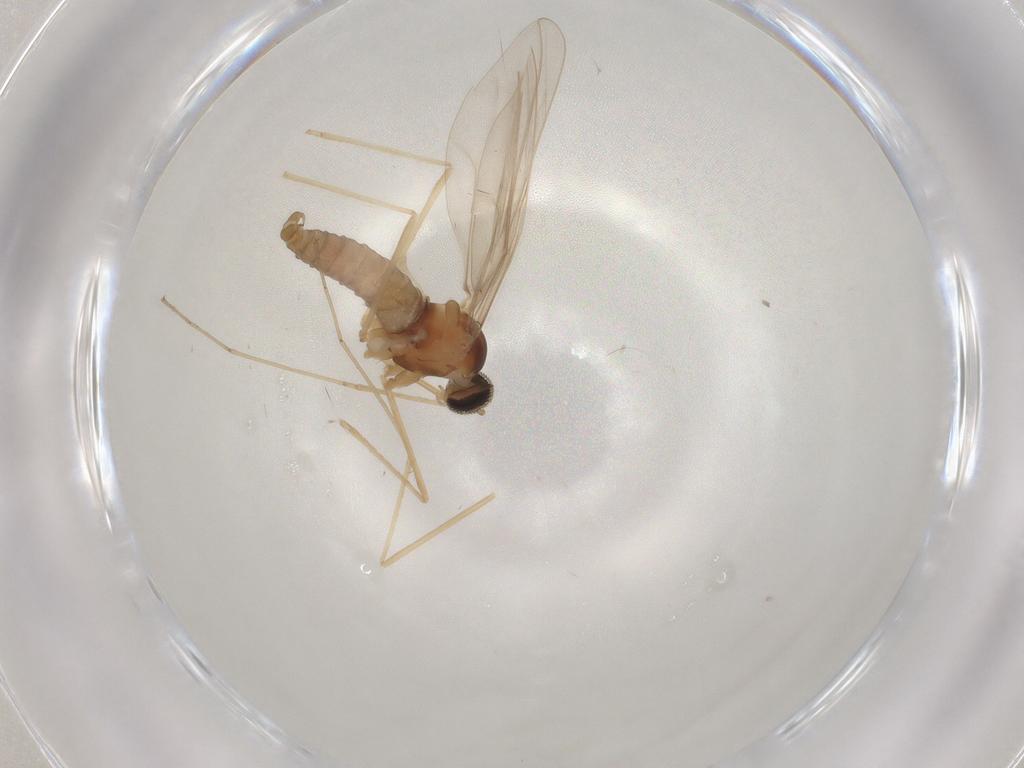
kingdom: Animalia
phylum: Arthropoda
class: Insecta
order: Diptera
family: Cecidomyiidae
